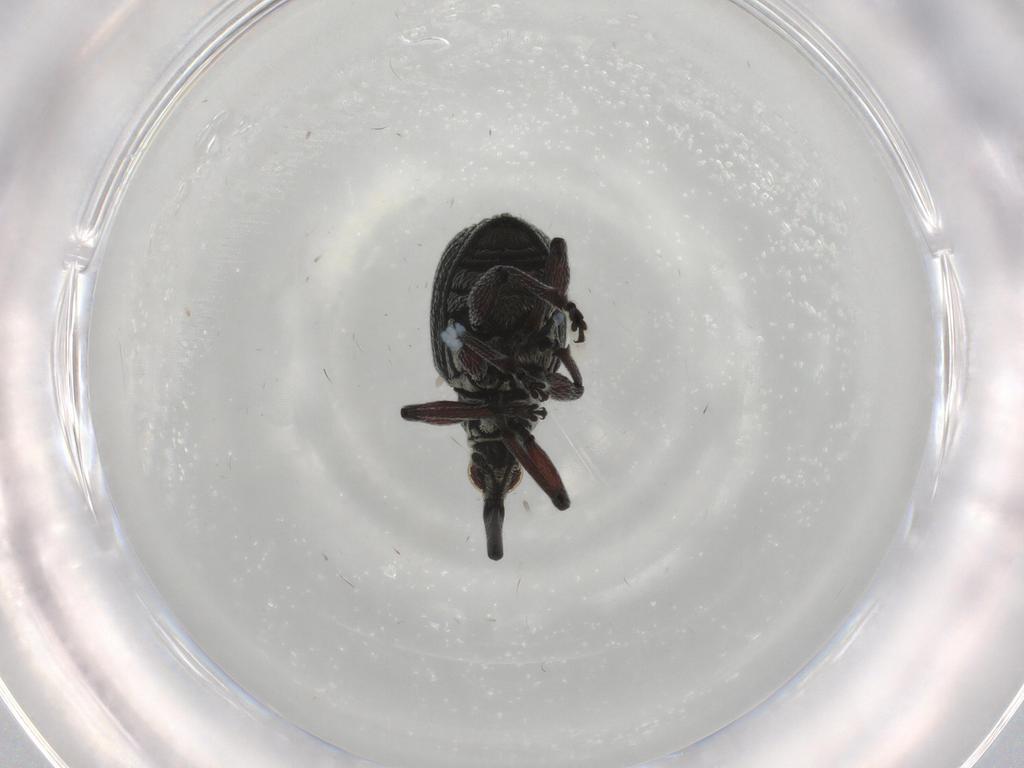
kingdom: Animalia
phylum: Arthropoda
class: Insecta
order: Coleoptera
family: Brentidae
